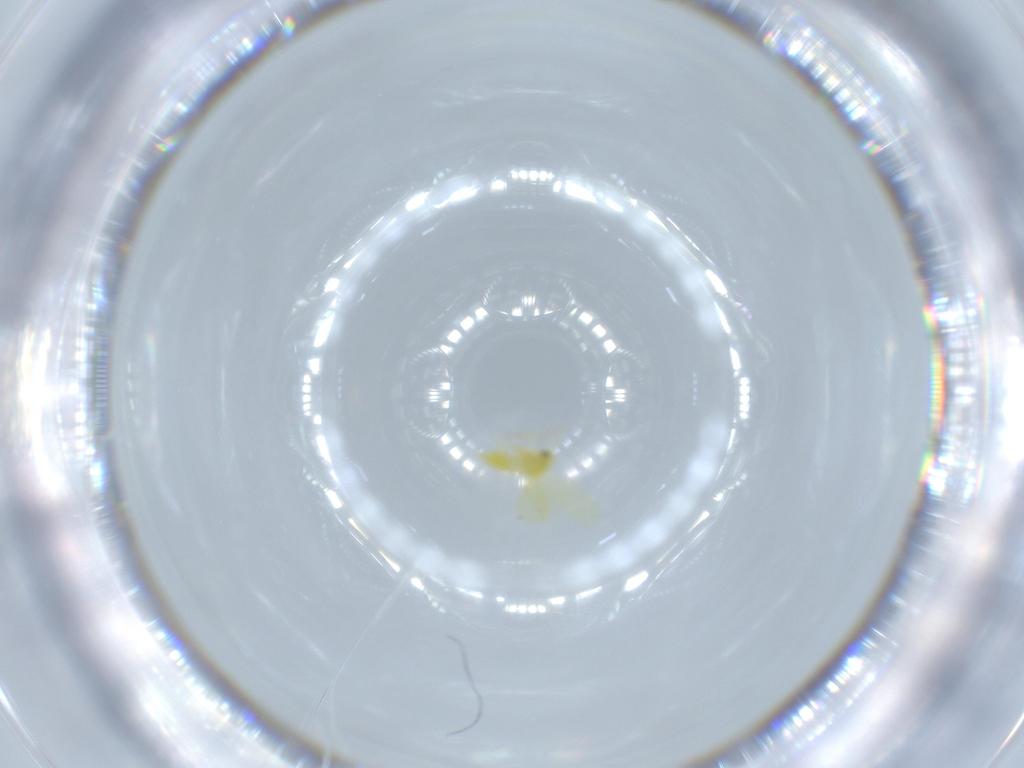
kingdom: Animalia
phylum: Arthropoda
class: Insecta
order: Hemiptera
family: Aleyrodidae
